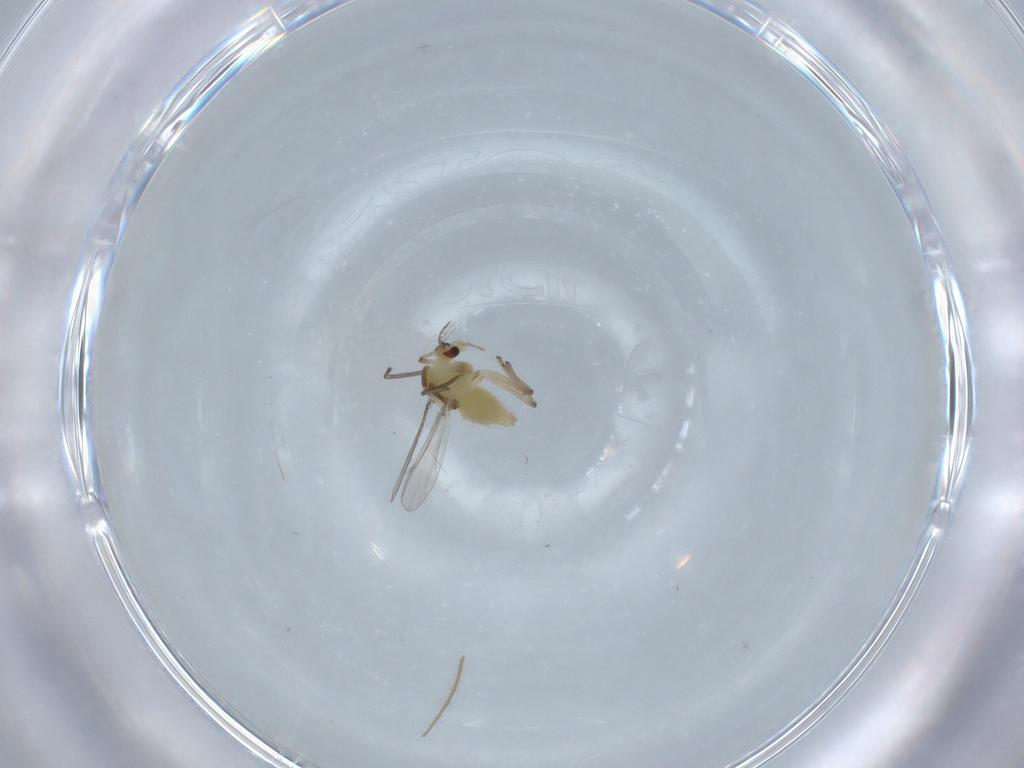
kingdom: Animalia
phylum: Arthropoda
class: Insecta
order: Diptera
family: Chironomidae
